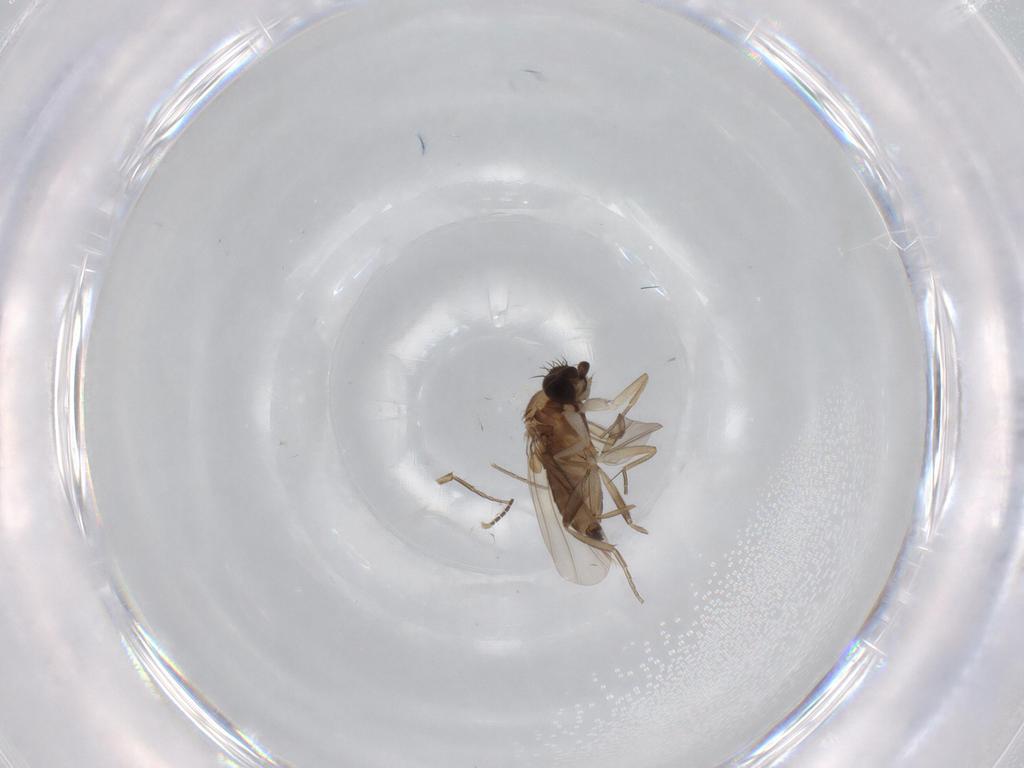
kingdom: Animalia
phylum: Arthropoda
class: Insecta
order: Diptera
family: Phoridae
